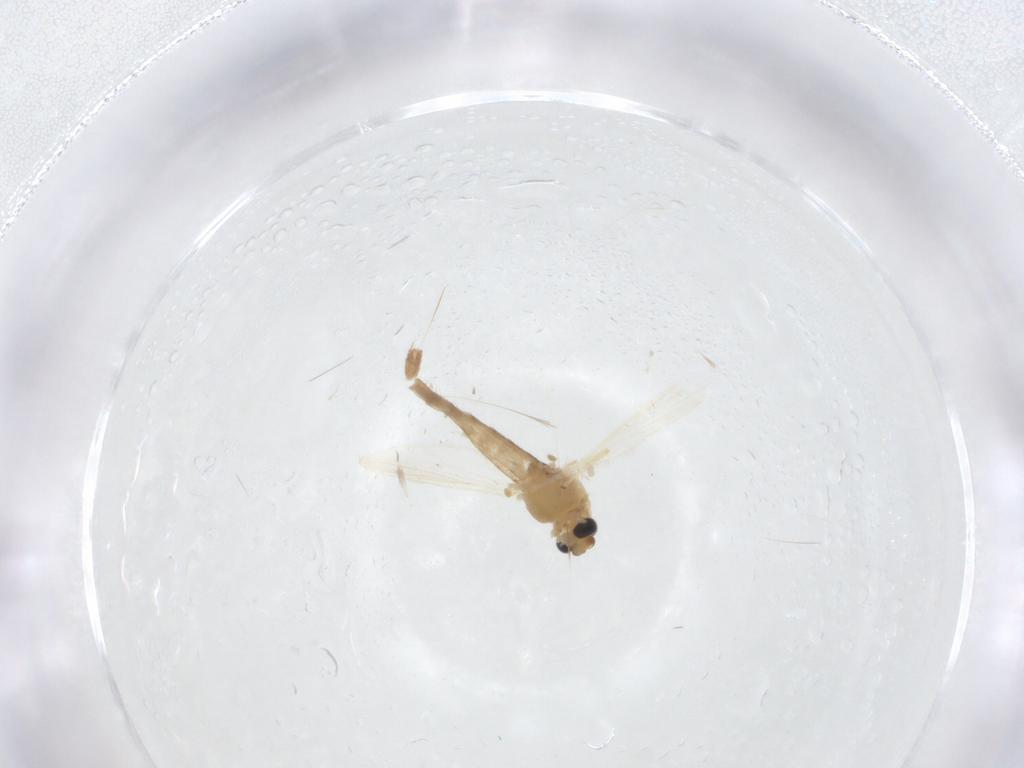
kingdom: Animalia
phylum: Arthropoda
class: Insecta
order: Diptera
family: Chironomidae
